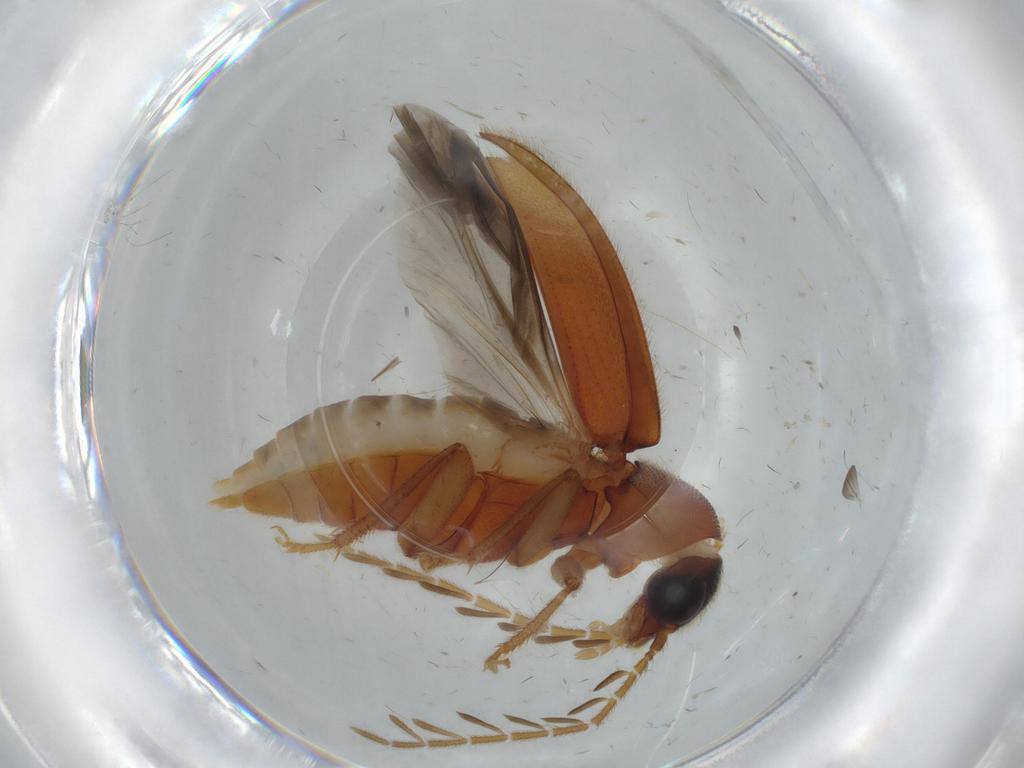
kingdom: Animalia
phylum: Arthropoda
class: Insecta
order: Coleoptera
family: Ptilodactylidae
